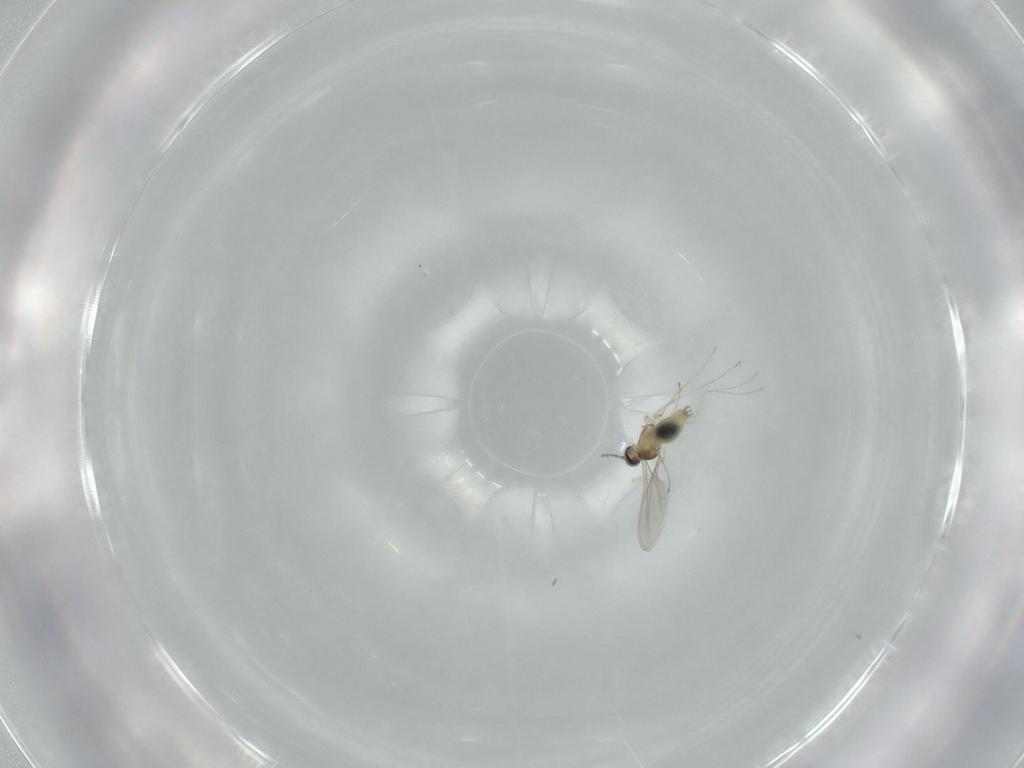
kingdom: Animalia
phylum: Arthropoda
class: Insecta
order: Diptera
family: Cecidomyiidae
